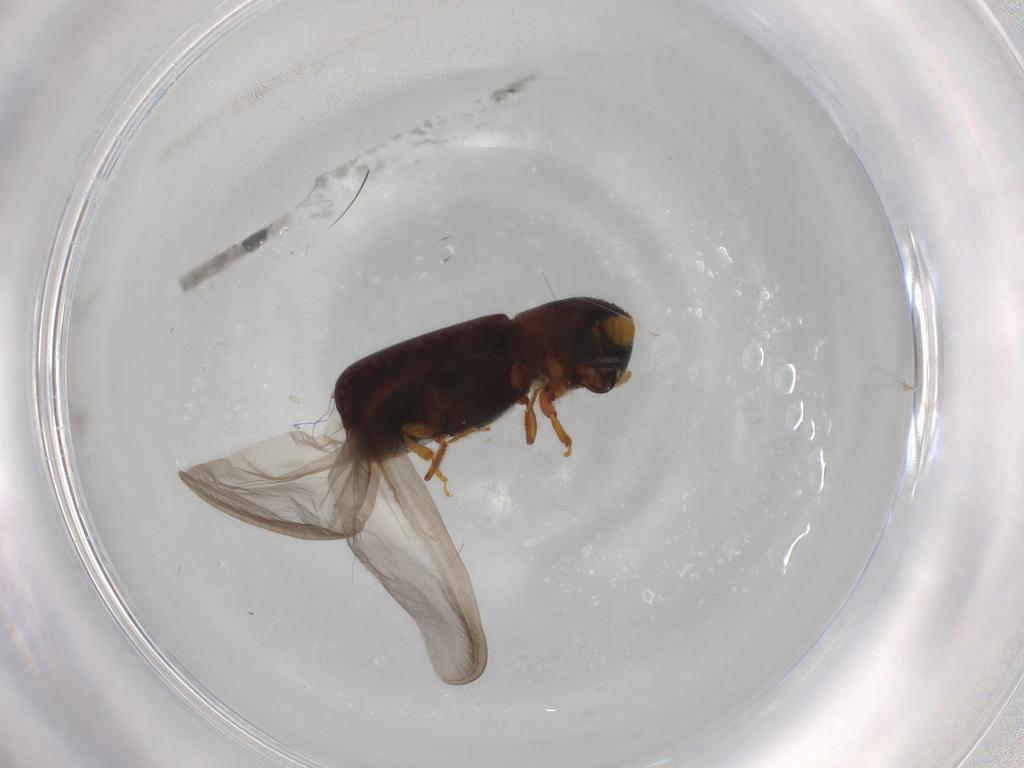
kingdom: Animalia
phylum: Arthropoda
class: Insecta
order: Coleoptera
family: Curculionidae
